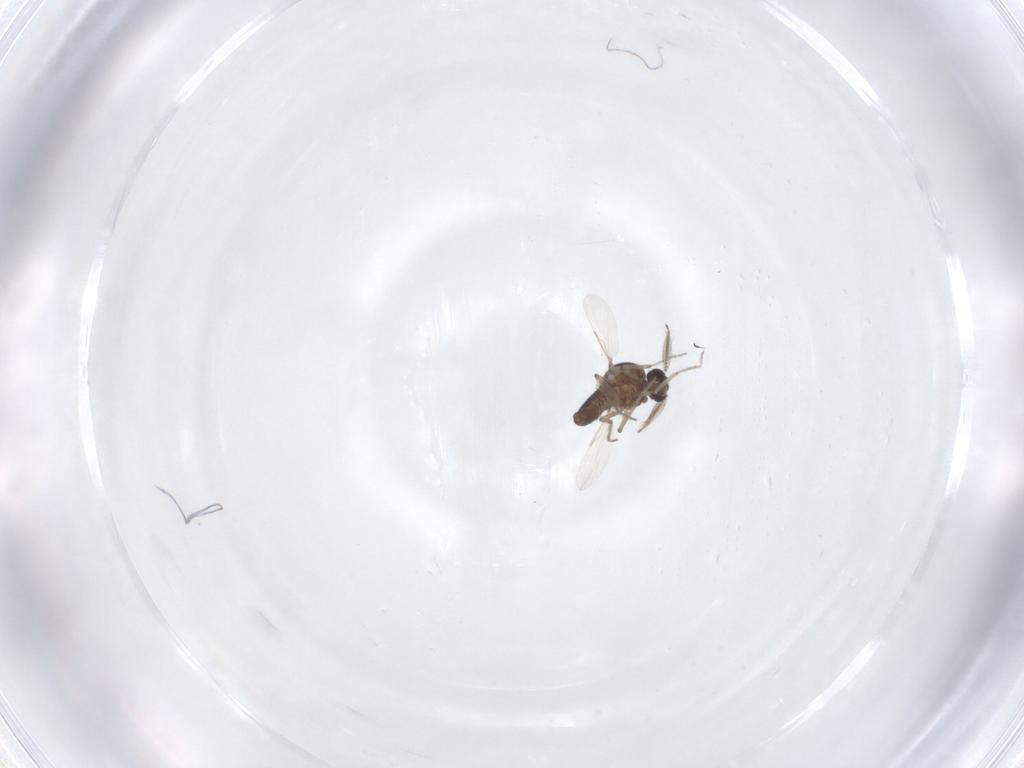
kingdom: Animalia
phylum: Arthropoda
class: Insecta
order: Diptera
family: Ceratopogonidae
